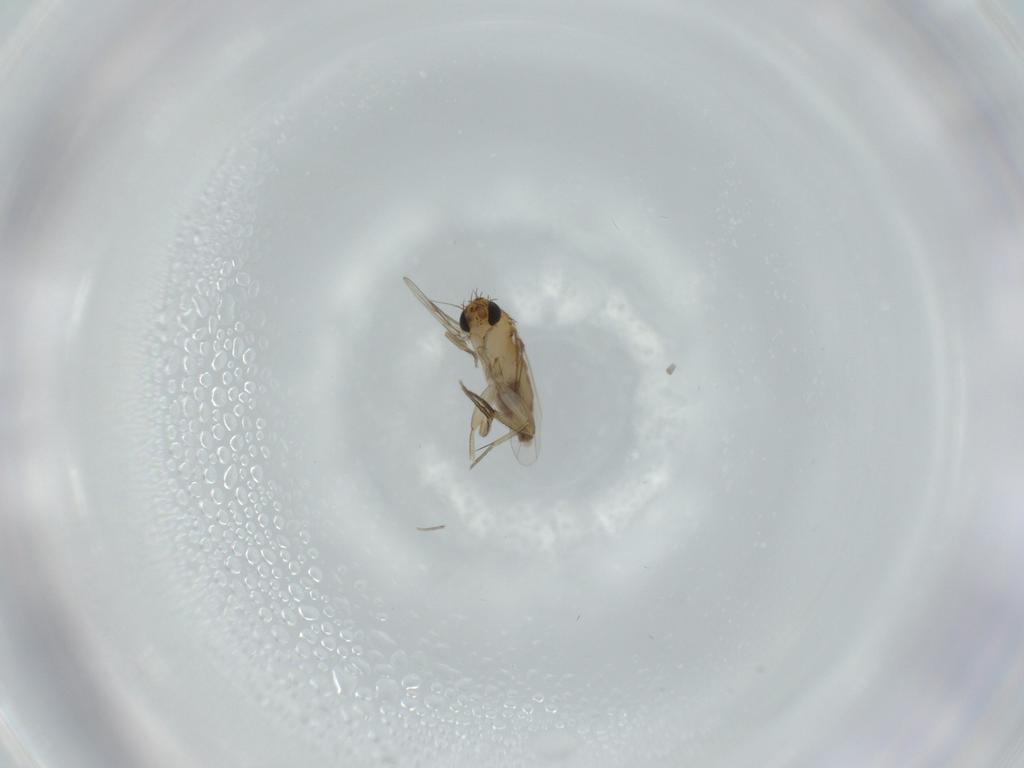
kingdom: Animalia
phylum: Arthropoda
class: Insecta
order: Diptera
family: Phoridae
